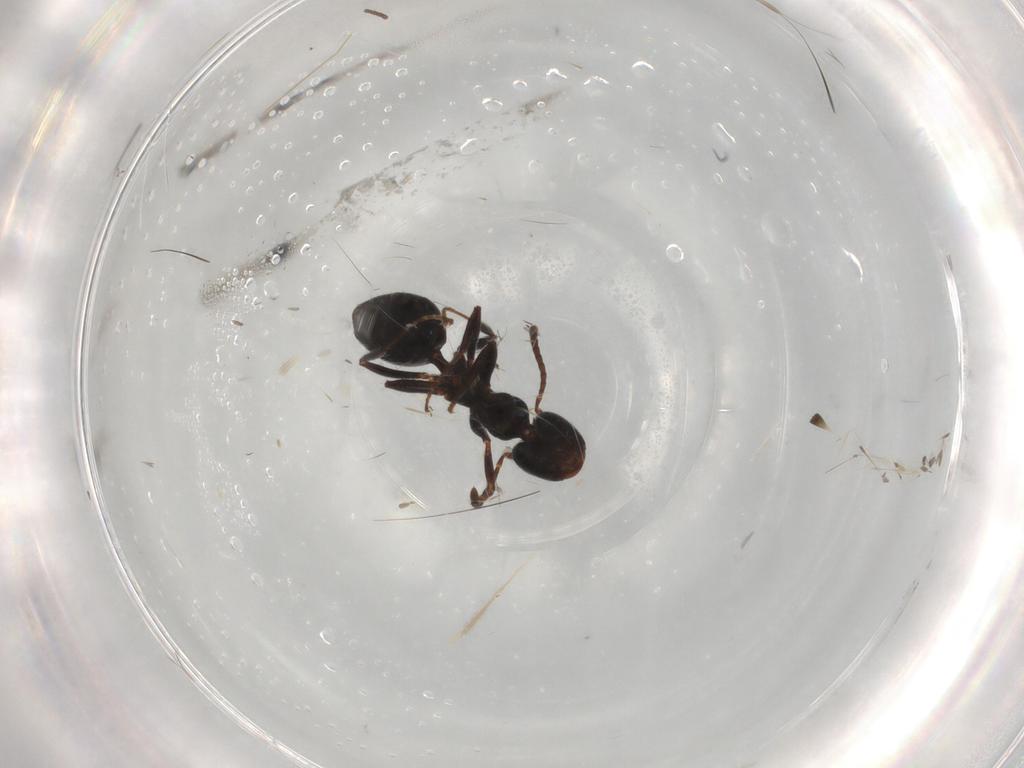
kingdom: Animalia
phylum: Arthropoda
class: Insecta
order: Hymenoptera
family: Formicidae
